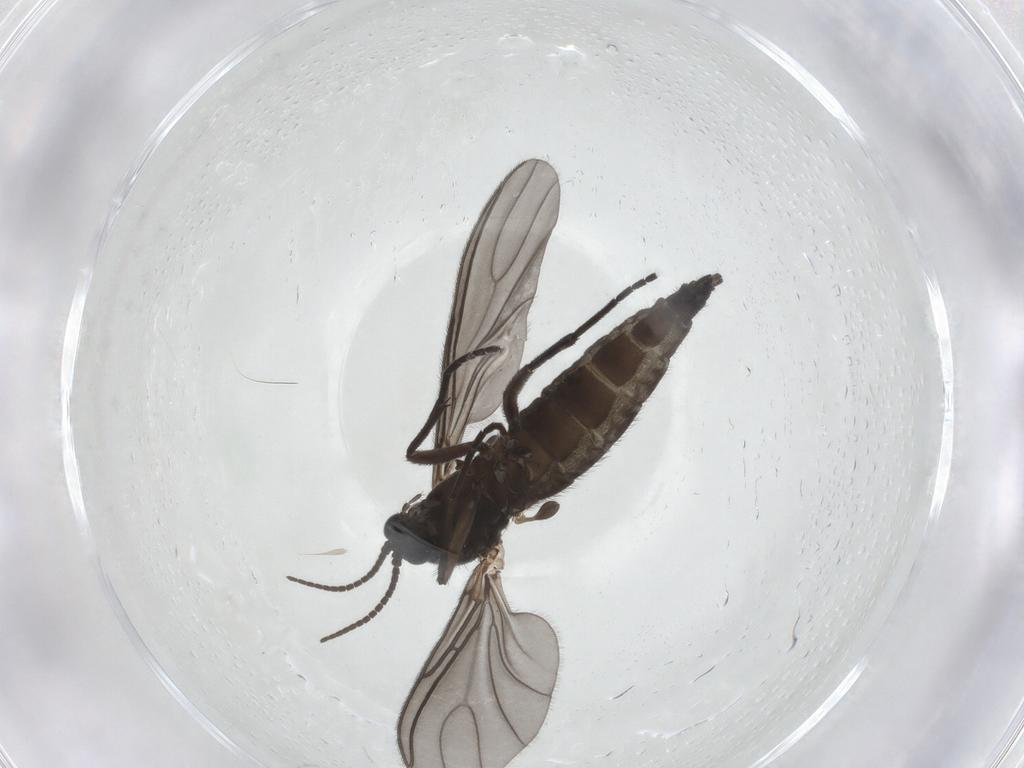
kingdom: Animalia
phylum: Arthropoda
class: Insecta
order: Diptera
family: Sciaridae
